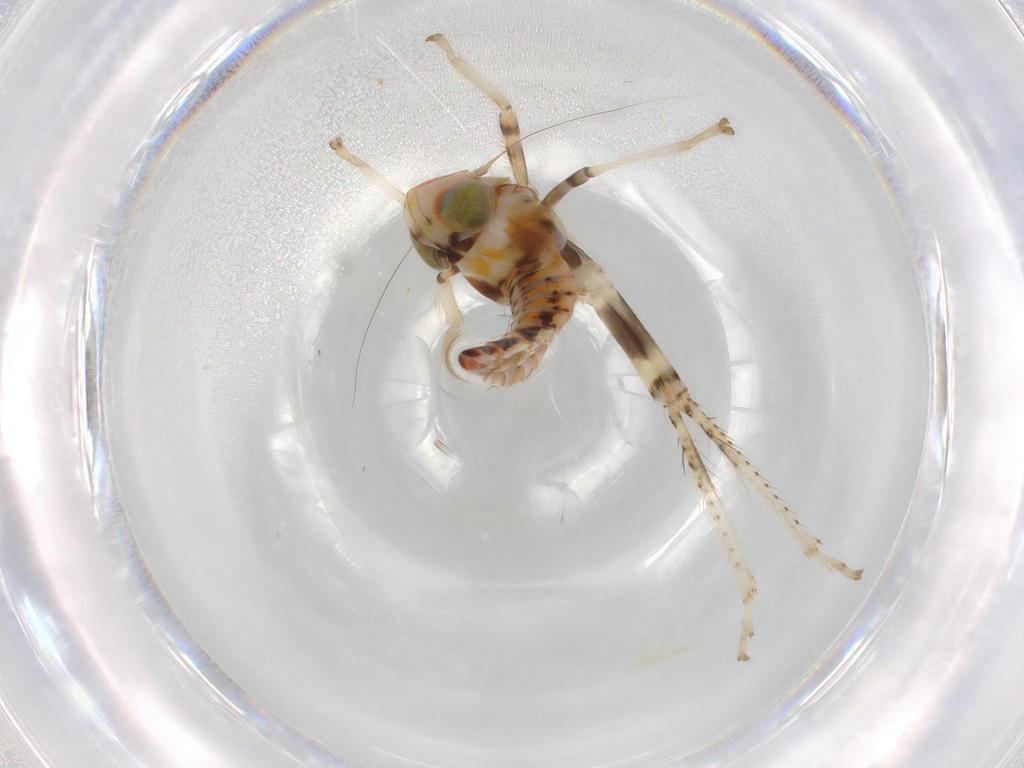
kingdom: Animalia
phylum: Arthropoda
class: Insecta
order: Hemiptera
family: Cicadellidae
